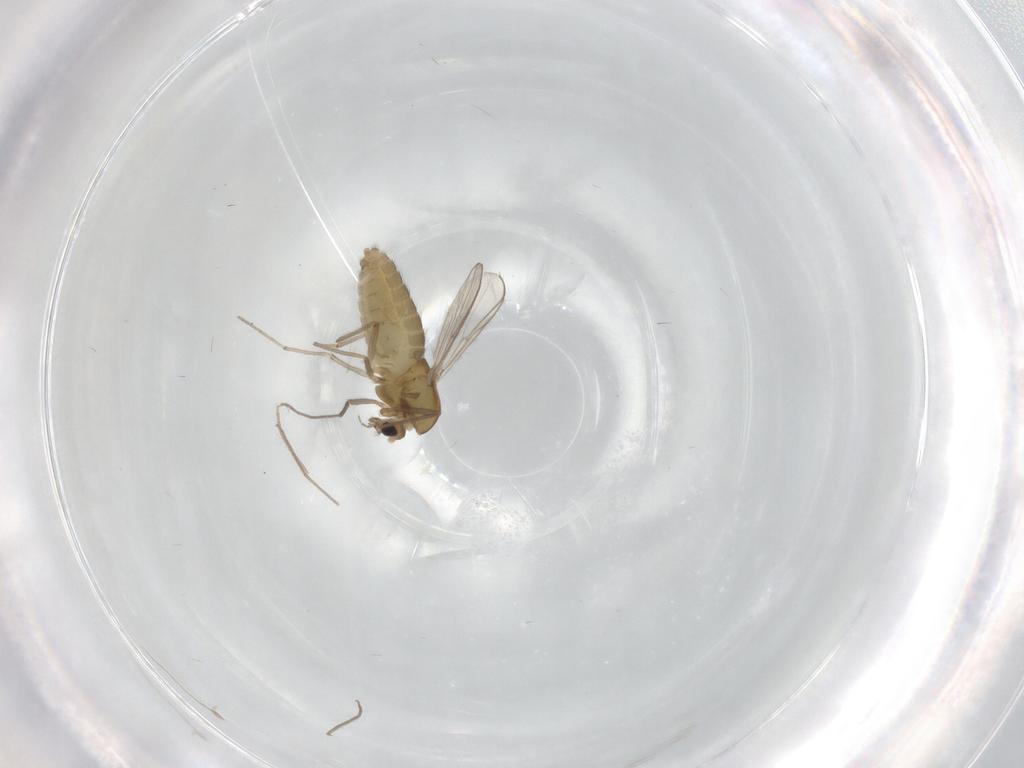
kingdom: Animalia
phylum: Arthropoda
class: Insecta
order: Diptera
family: Chironomidae
